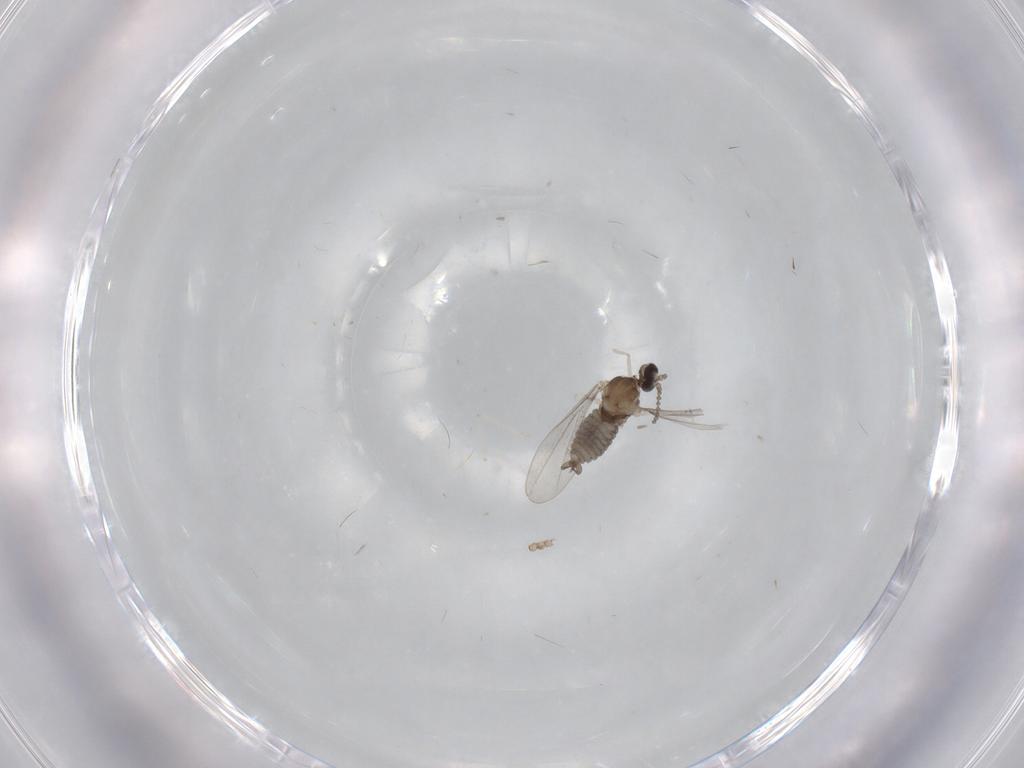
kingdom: Animalia
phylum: Arthropoda
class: Insecta
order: Diptera
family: Cecidomyiidae
